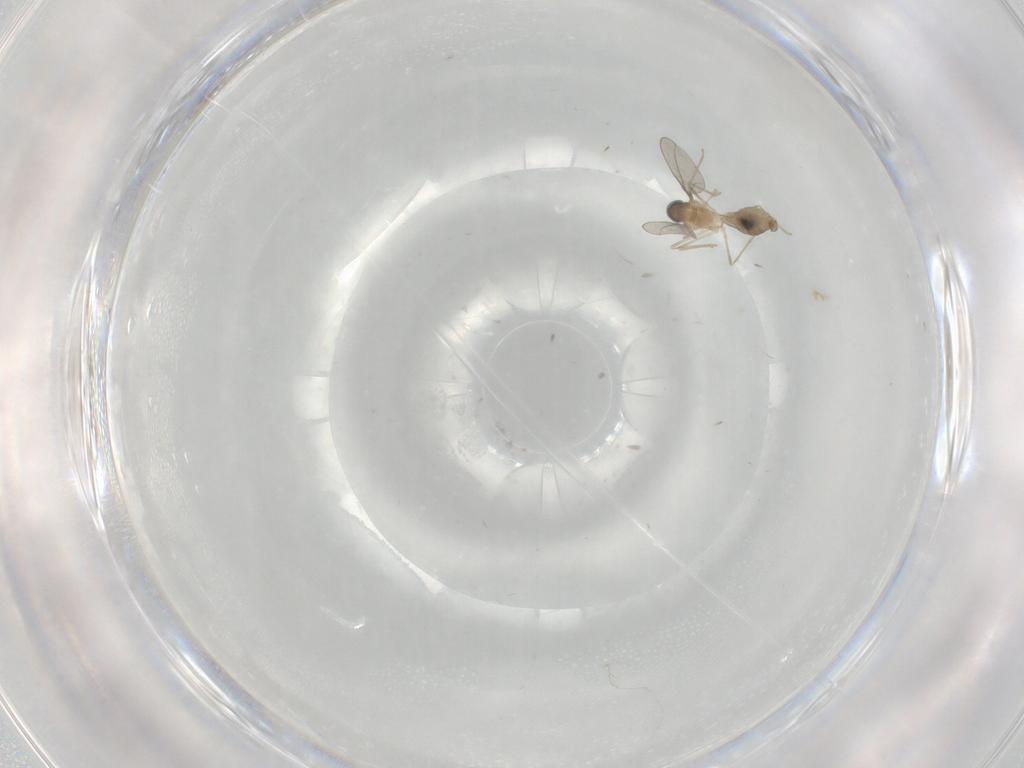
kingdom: Animalia
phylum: Arthropoda
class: Insecta
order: Diptera
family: Cecidomyiidae
